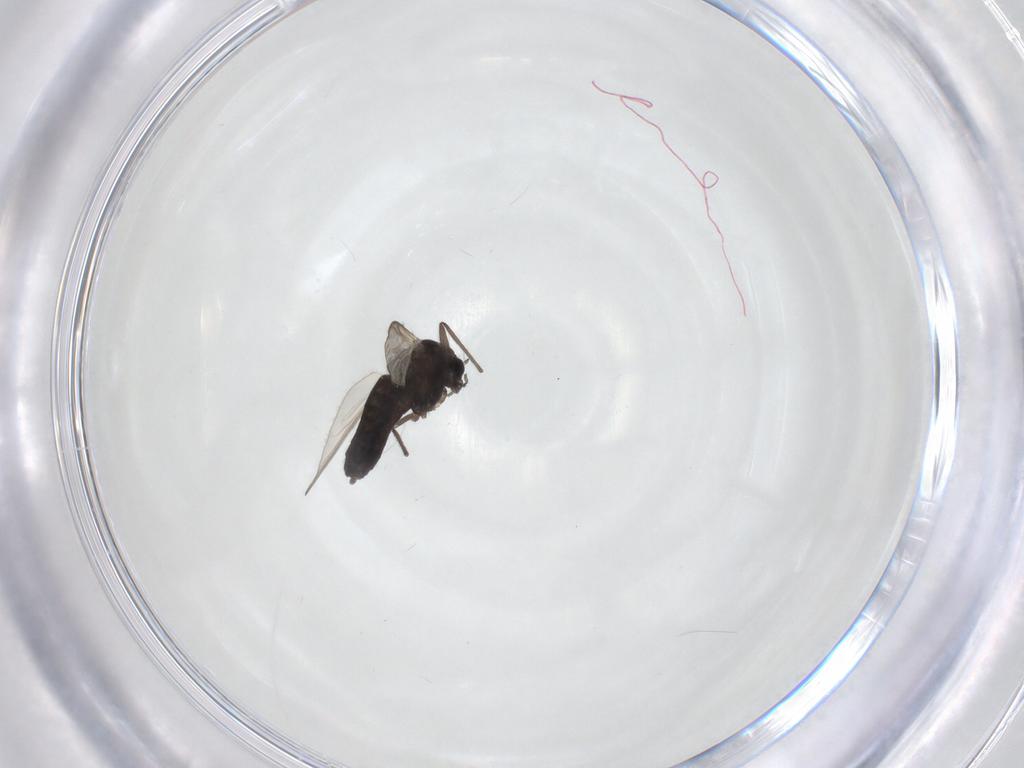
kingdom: Animalia
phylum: Arthropoda
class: Insecta
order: Diptera
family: Chironomidae
